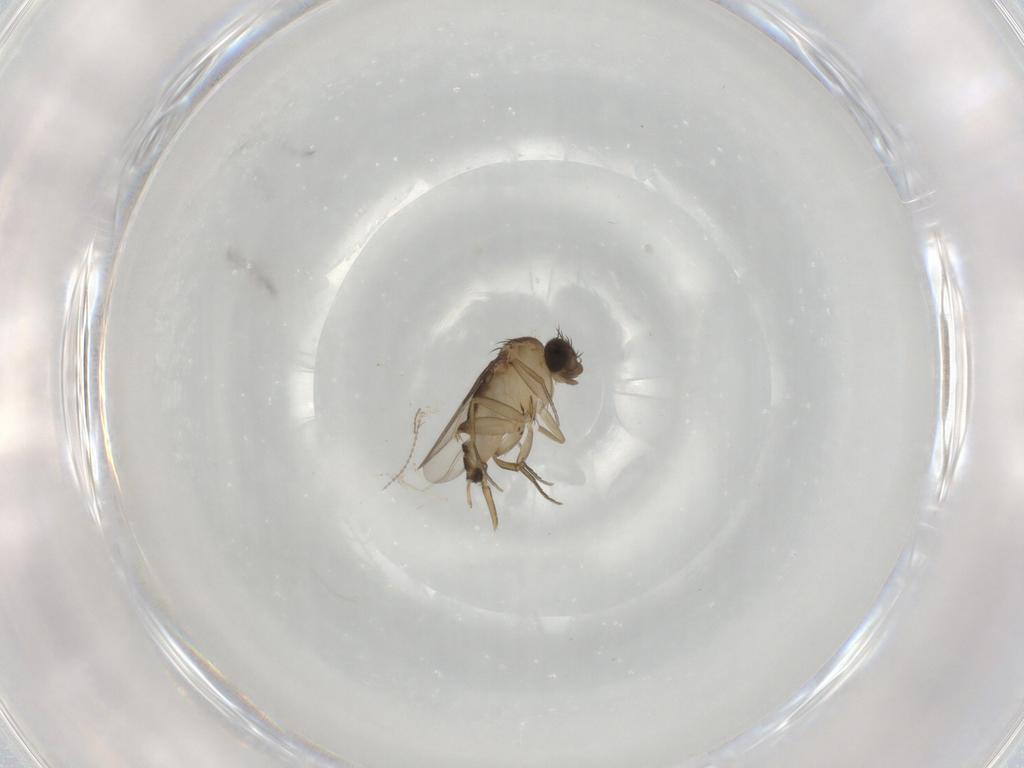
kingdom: Animalia
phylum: Arthropoda
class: Insecta
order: Diptera
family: Phoridae
